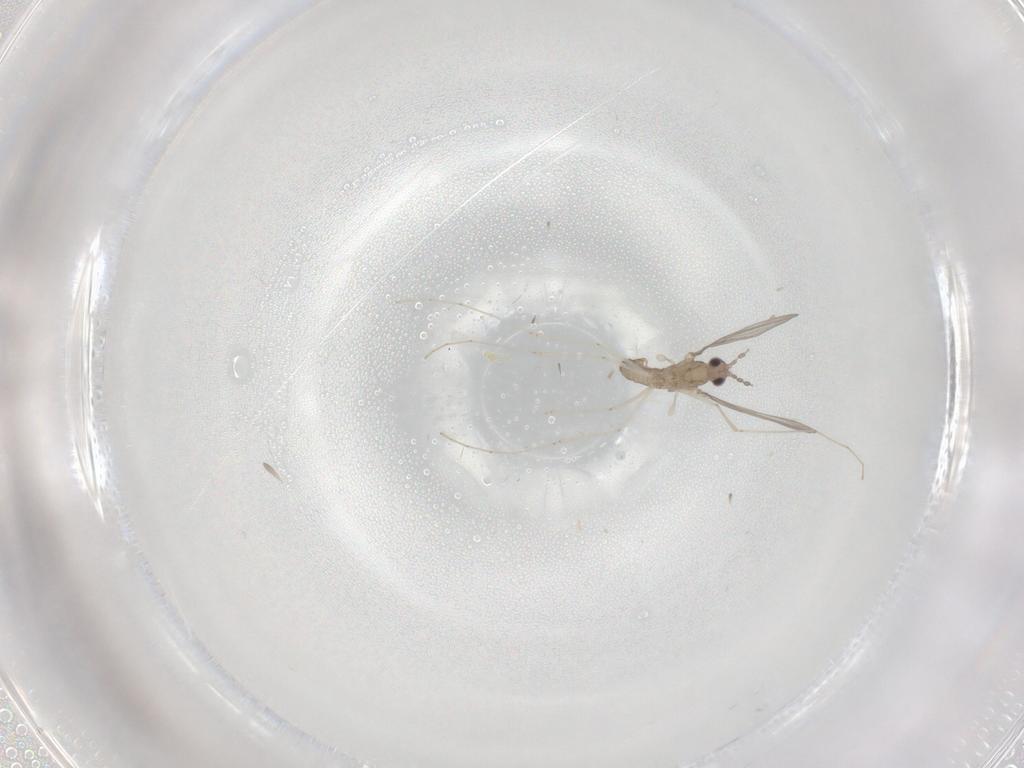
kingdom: Animalia
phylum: Arthropoda
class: Insecta
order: Diptera
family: Cecidomyiidae
